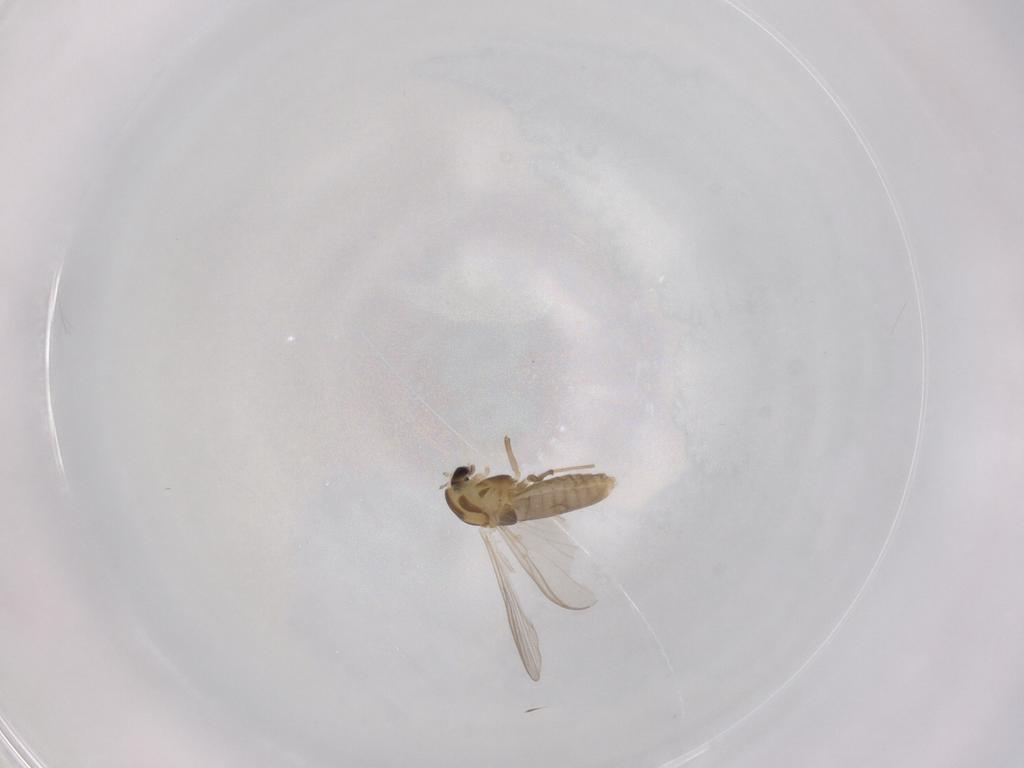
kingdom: Animalia
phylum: Arthropoda
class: Insecta
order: Diptera
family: Chironomidae
